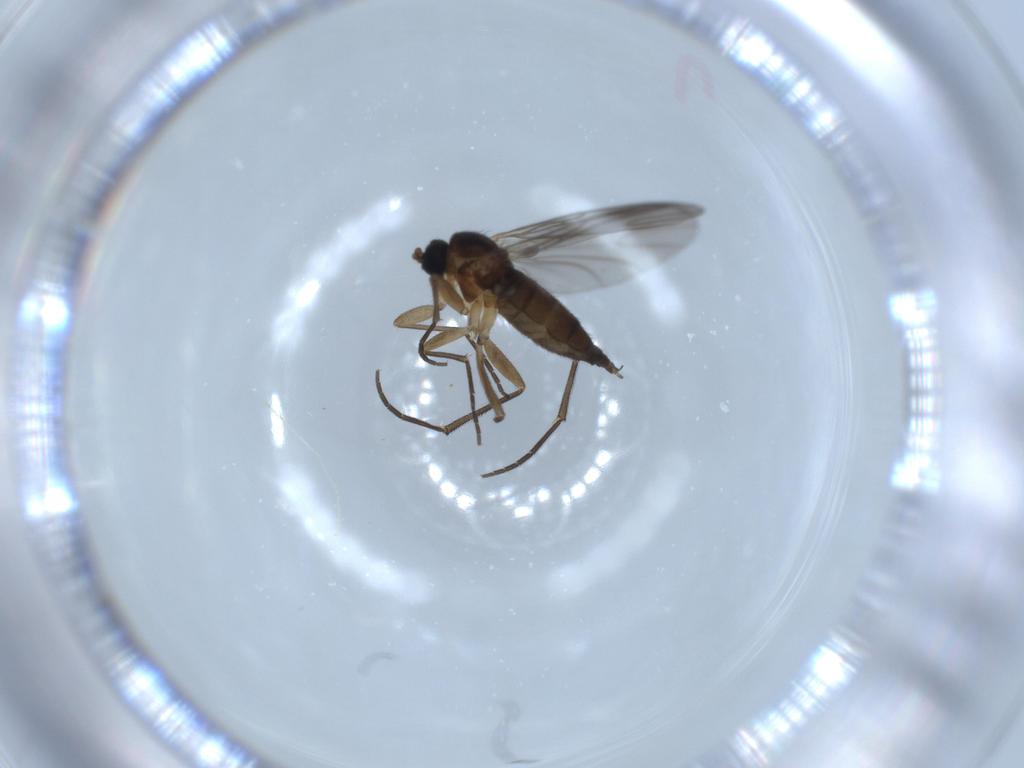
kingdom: Animalia
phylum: Arthropoda
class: Insecta
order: Diptera
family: Sciaridae
